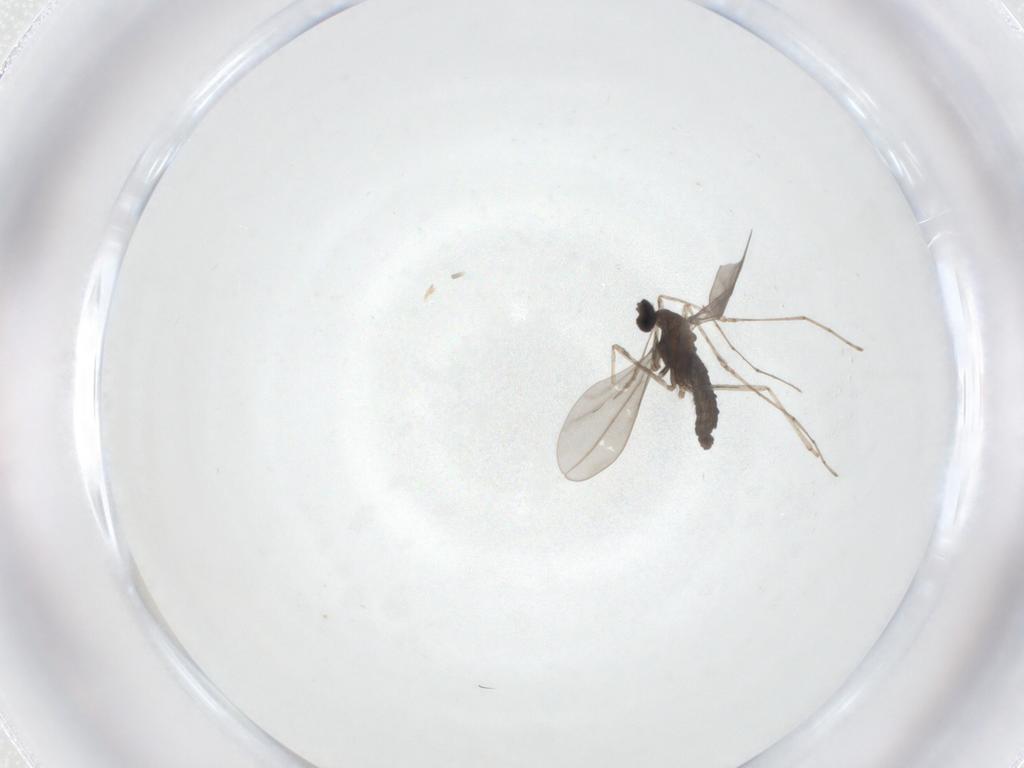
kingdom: Animalia
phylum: Arthropoda
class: Insecta
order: Diptera
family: Cecidomyiidae
